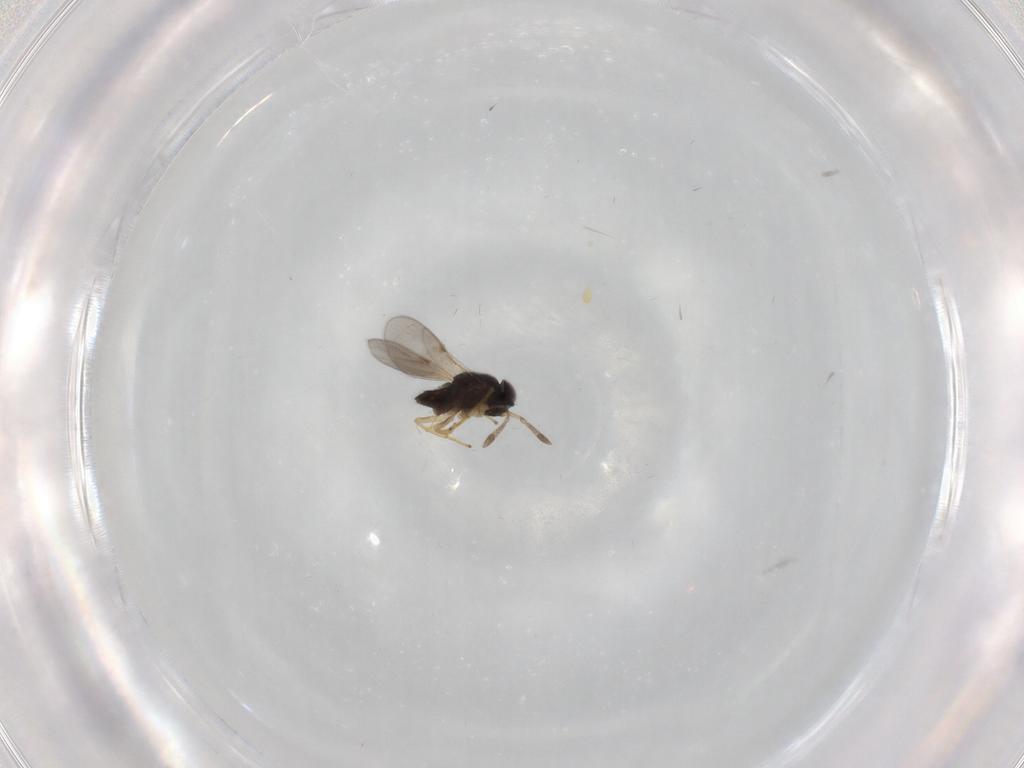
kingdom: Animalia
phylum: Arthropoda
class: Insecta
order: Hymenoptera
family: Encyrtidae
